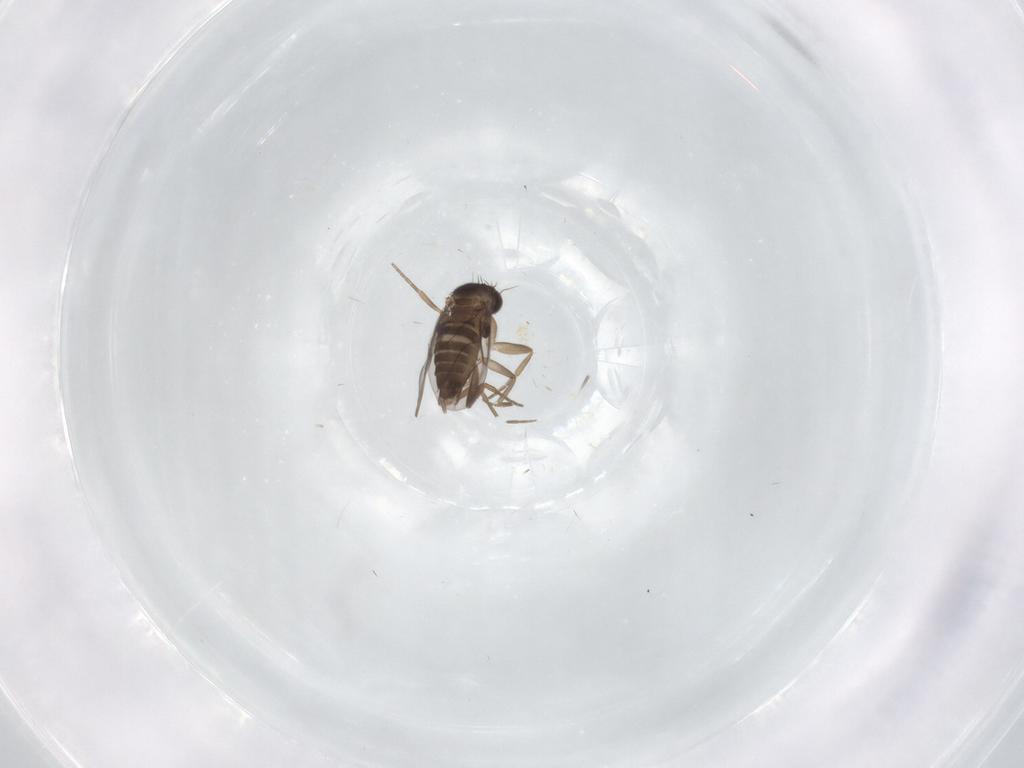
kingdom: Animalia
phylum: Arthropoda
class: Insecta
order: Diptera
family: Phoridae
